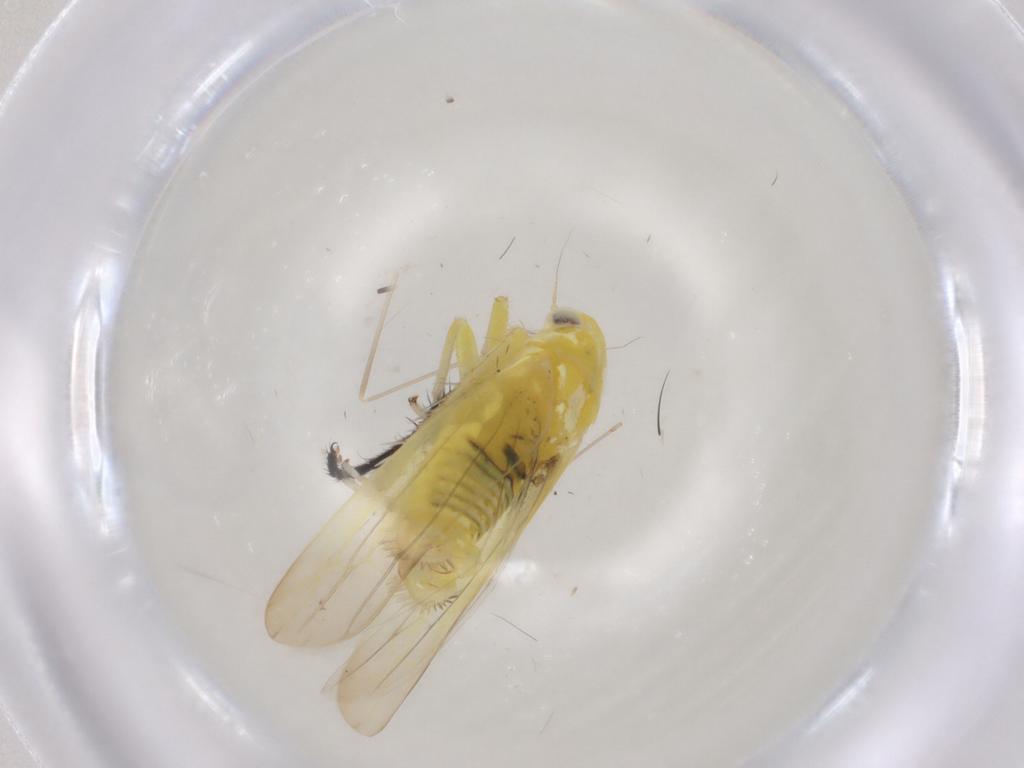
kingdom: Animalia
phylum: Arthropoda
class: Insecta
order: Hemiptera
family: Cicadellidae
